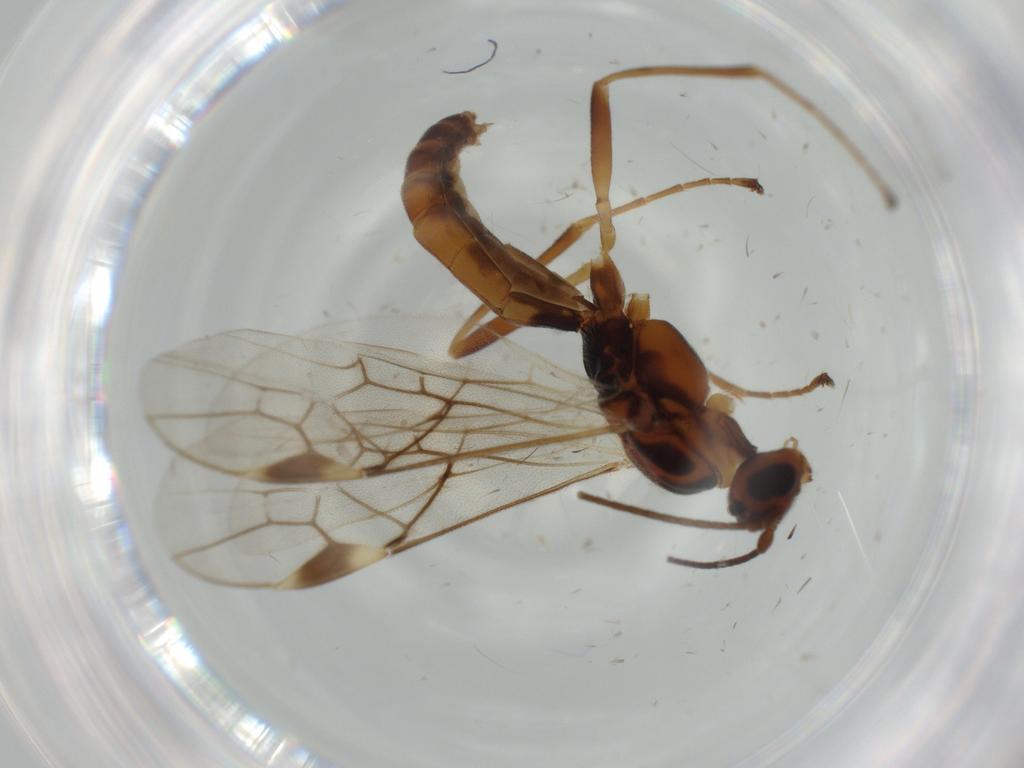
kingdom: Animalia
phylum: Arthropoda
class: Insecta
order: Hymenoptera
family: Braconidae
